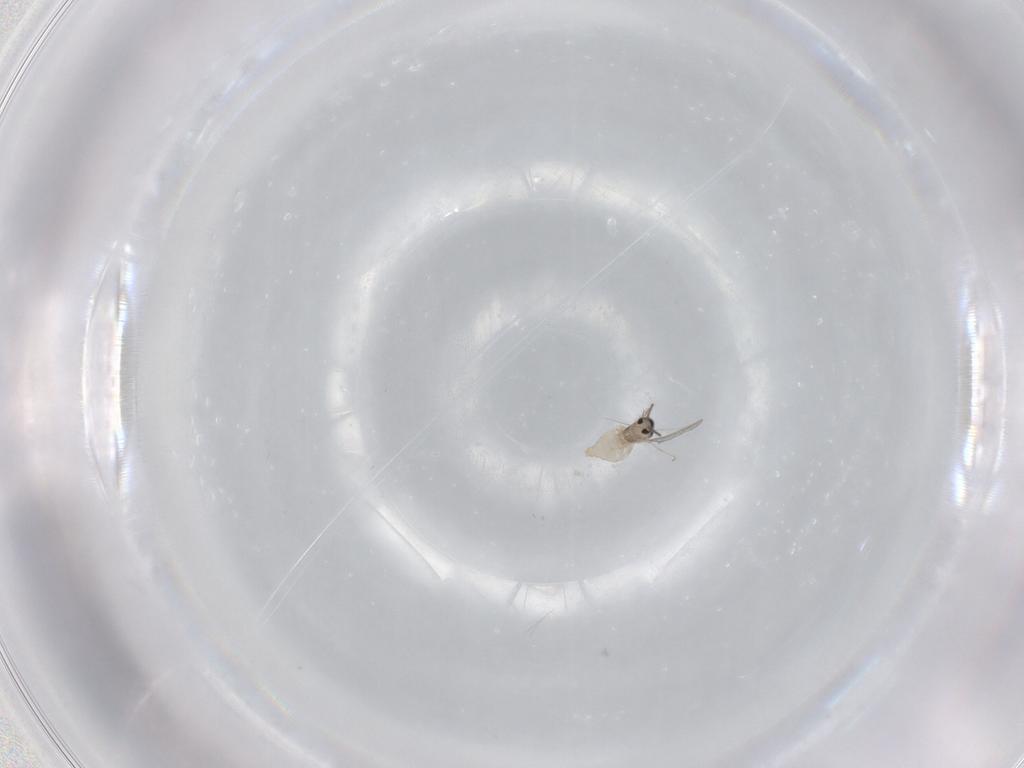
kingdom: Animalia
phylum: Arthropoda
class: Insecta
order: Diptera
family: Cecidomyiidae
